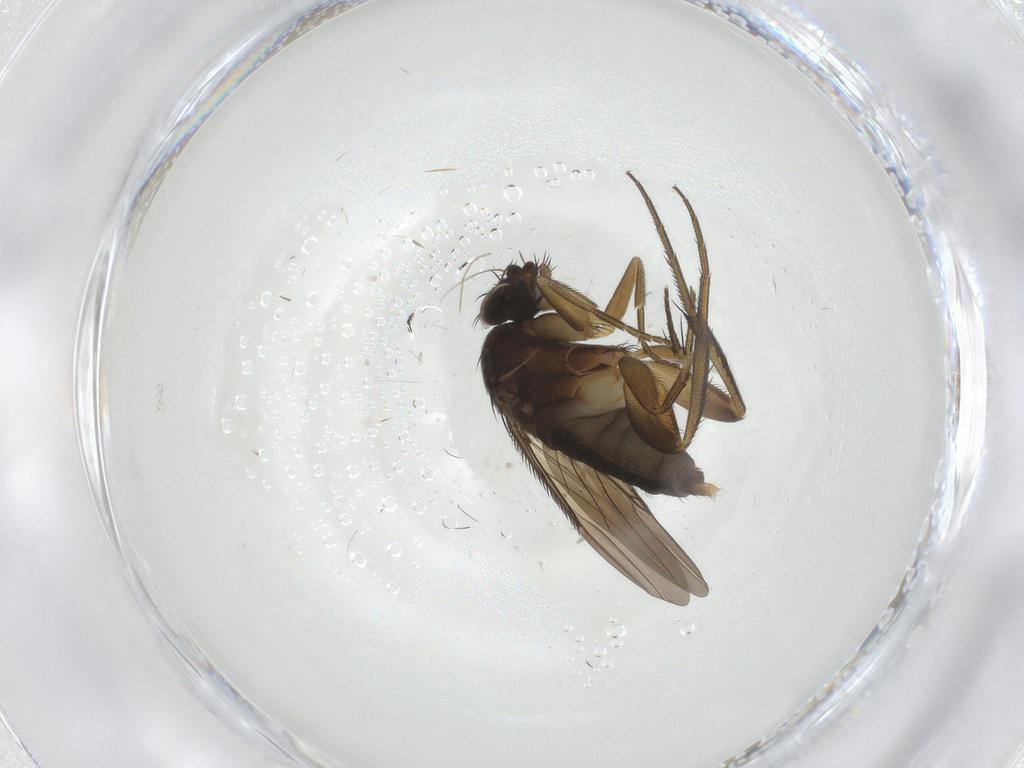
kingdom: Animalia
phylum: Arthropoda
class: Insecta
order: Diptera
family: Phoridae
